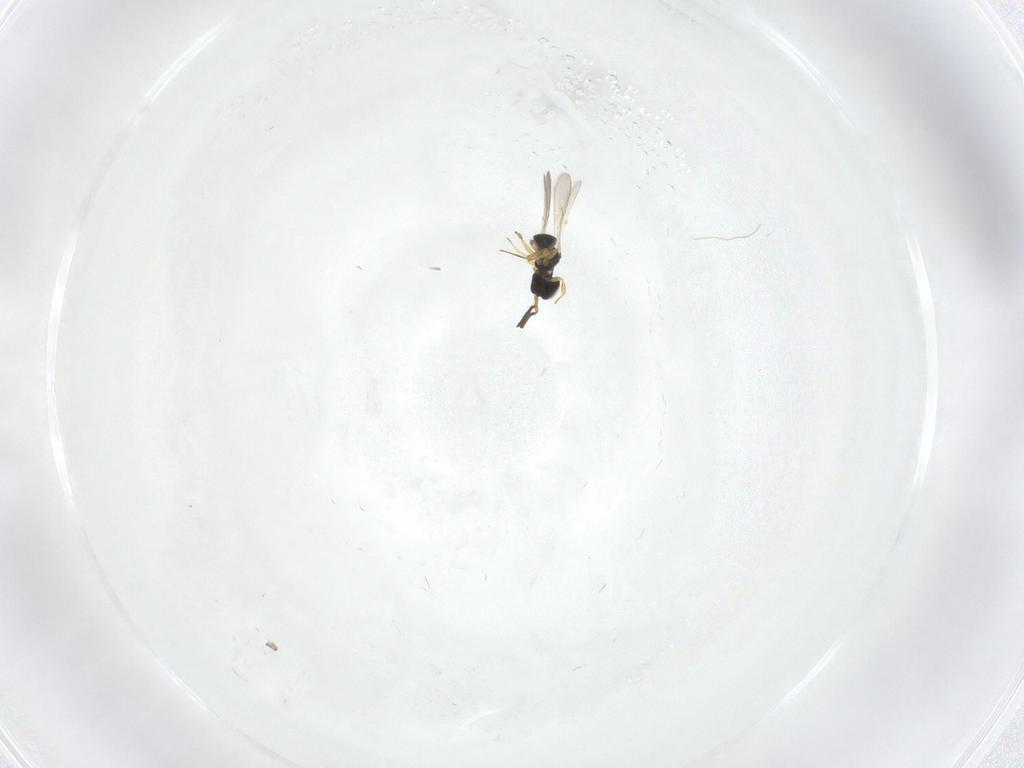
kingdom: Animalia
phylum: Arthropoda
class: Insecta
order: Hymenoptera
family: Scelionidae
